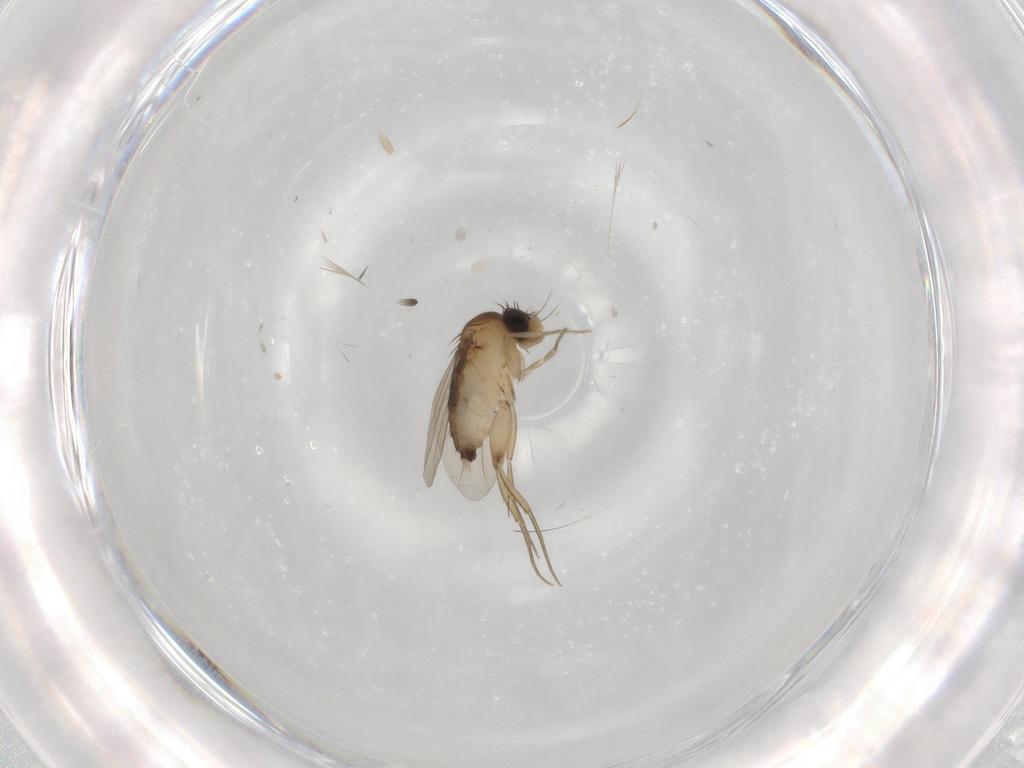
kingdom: Animalia
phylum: Arthropoda
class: Insecta
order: Diptera
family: Phoridae
